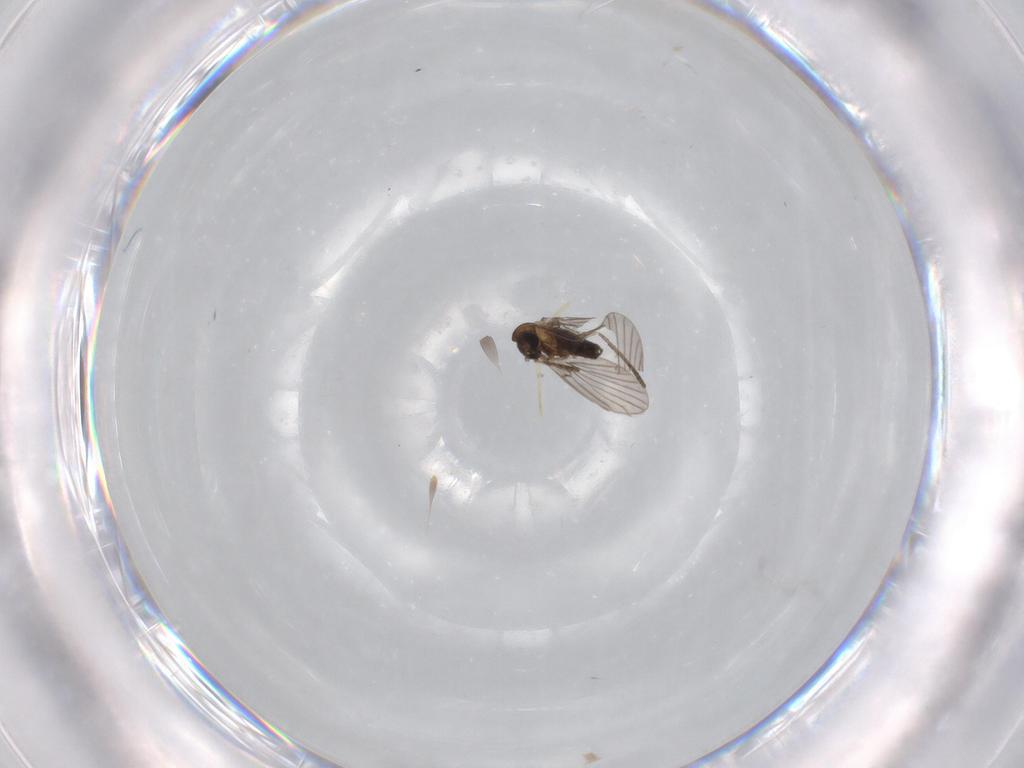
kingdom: Animalia
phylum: Arthropoda
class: Insecta
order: Diptera
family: Psychodidae
